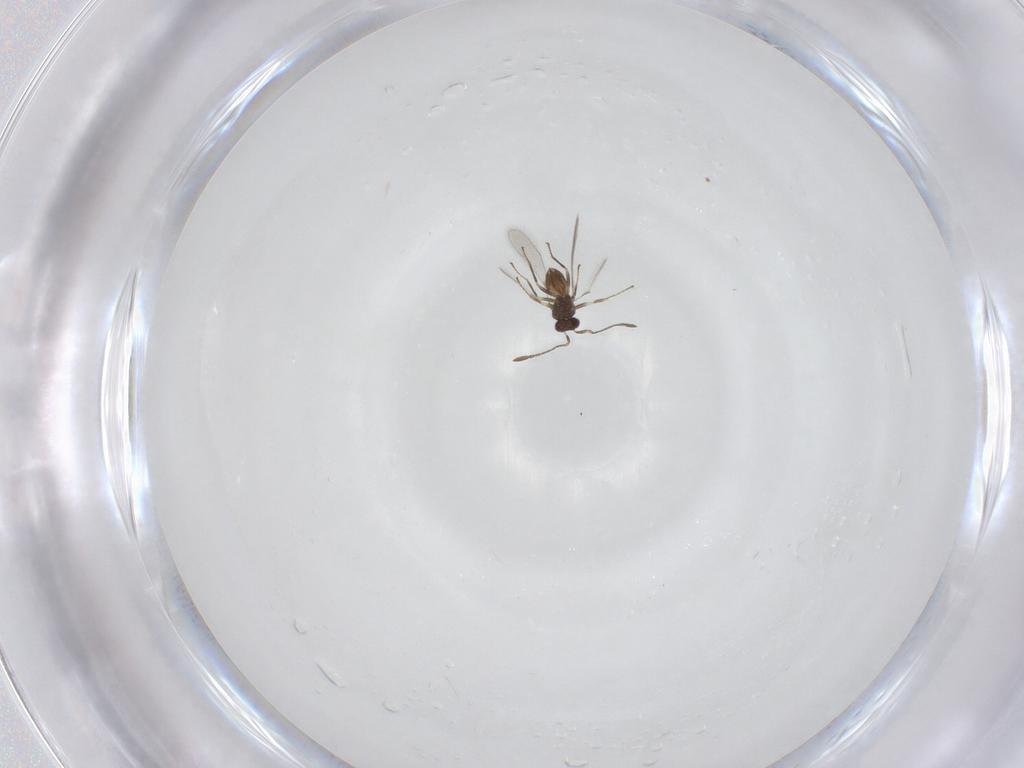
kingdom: Animalia
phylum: Arthropoda
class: Insecta
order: Hymenoptera
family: Mymaridae
